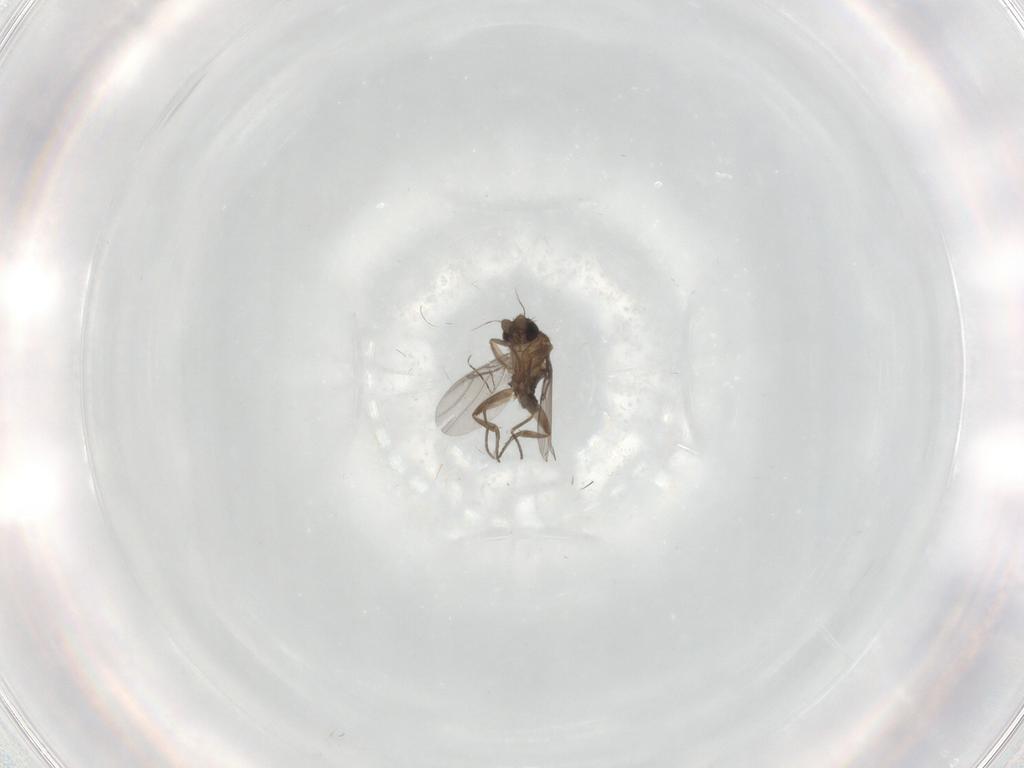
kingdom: Animalia
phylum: Arthropoda
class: Insecta
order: Diptera
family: Phoridae
